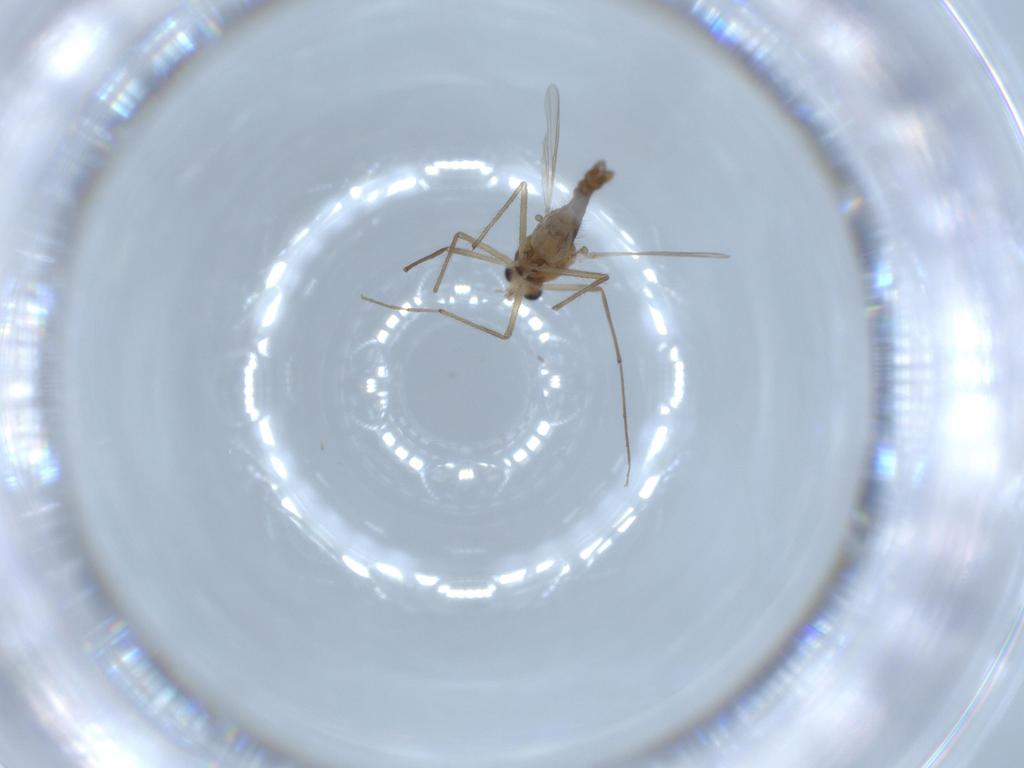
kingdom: Animalia
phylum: Arthropoda
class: Insecta
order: Diptera
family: Chironomidae
